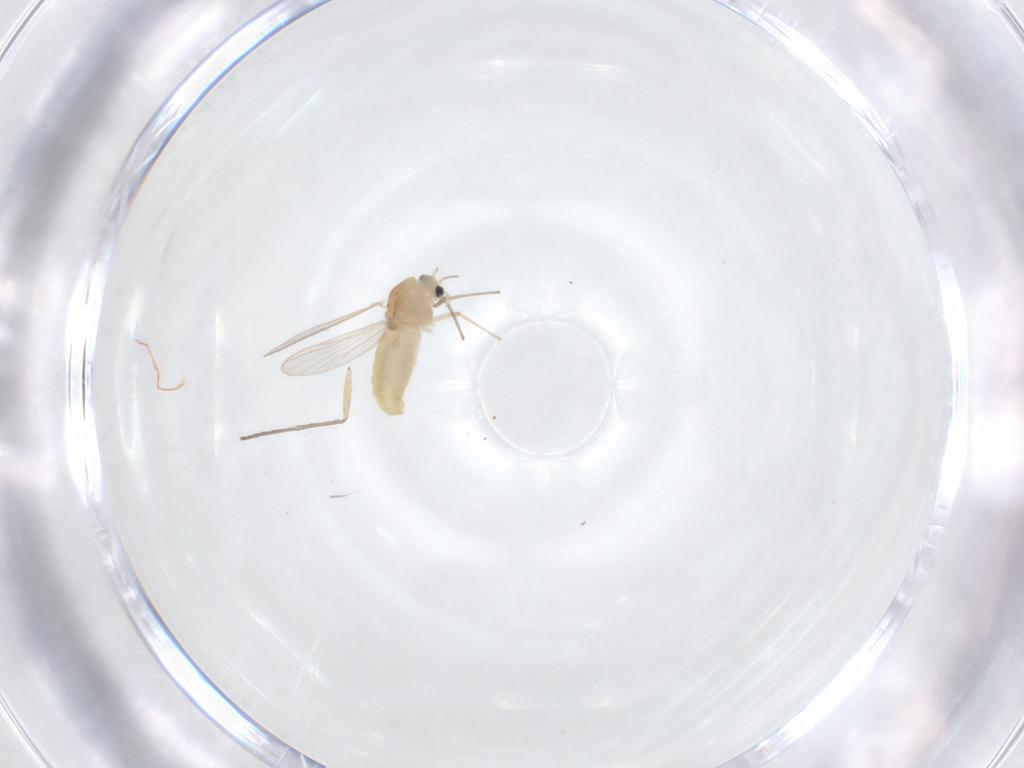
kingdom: Animalia
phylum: Arthropoda
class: Insecta
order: Diptera
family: Sciaridae
